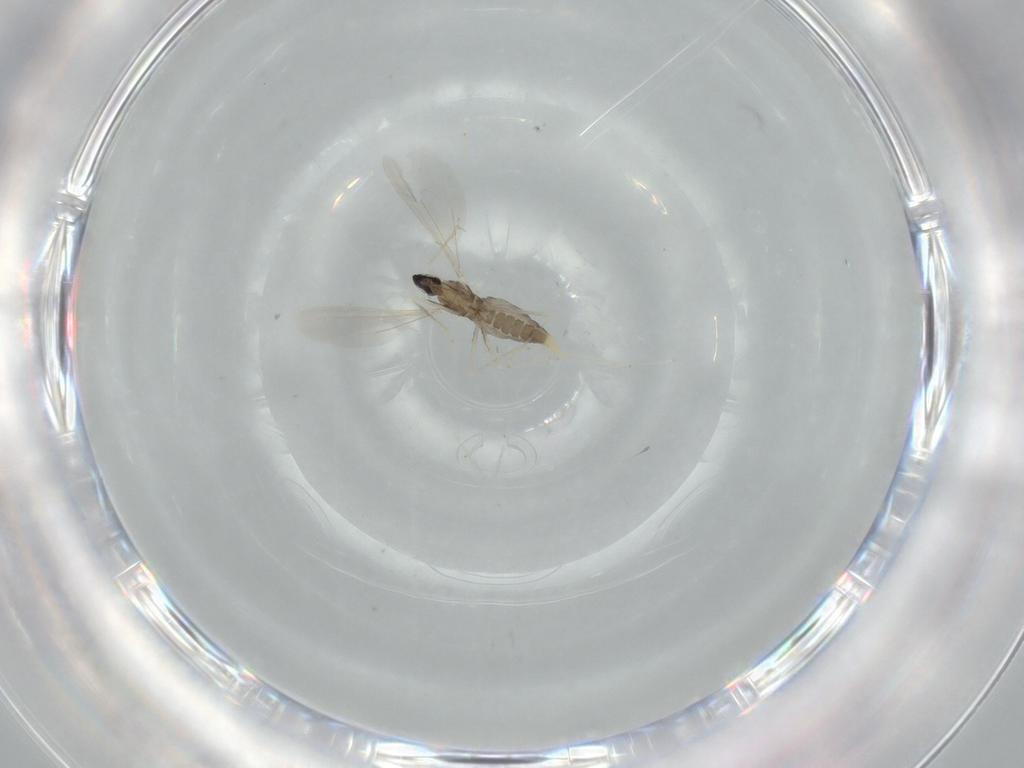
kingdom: Animalia
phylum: Arthropoda
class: Insecta
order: Diptera
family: Cecidomyiidae
